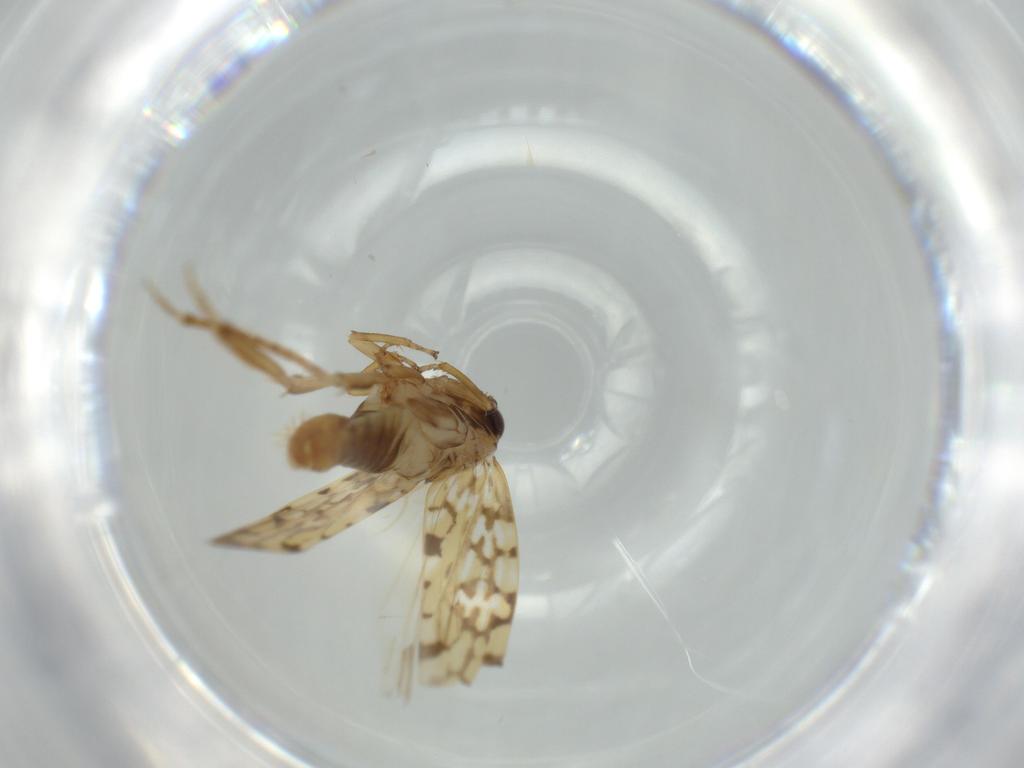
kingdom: Animalia
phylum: Arthropoda
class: Insecta
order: Hemiptera
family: Cicadellidae
